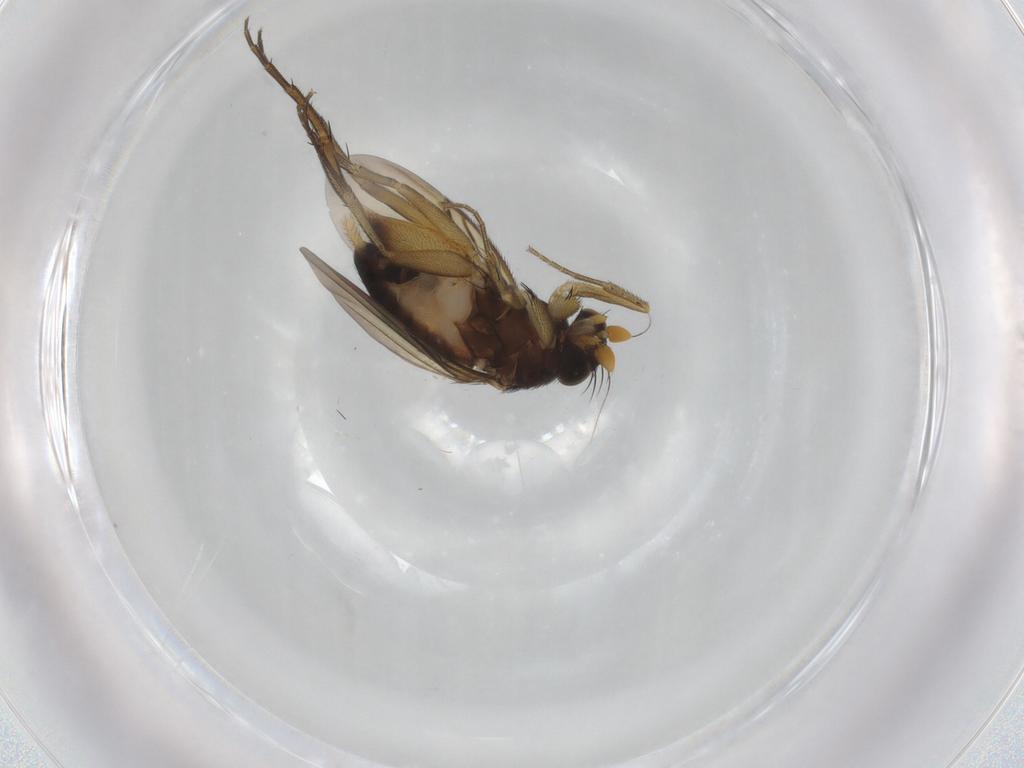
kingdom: Animalia
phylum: Arthropoda
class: Insecta
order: Diptera
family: Phoridae
